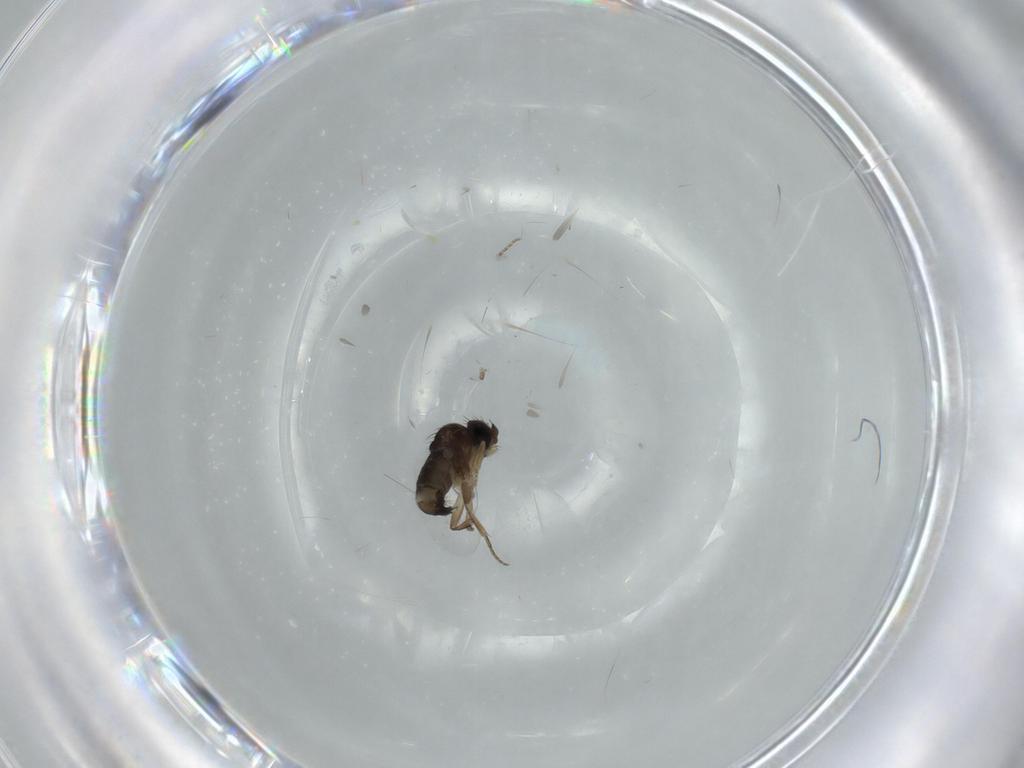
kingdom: Animalia
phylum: Arthropoda
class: Insecta
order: Diptera
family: Phoridae
